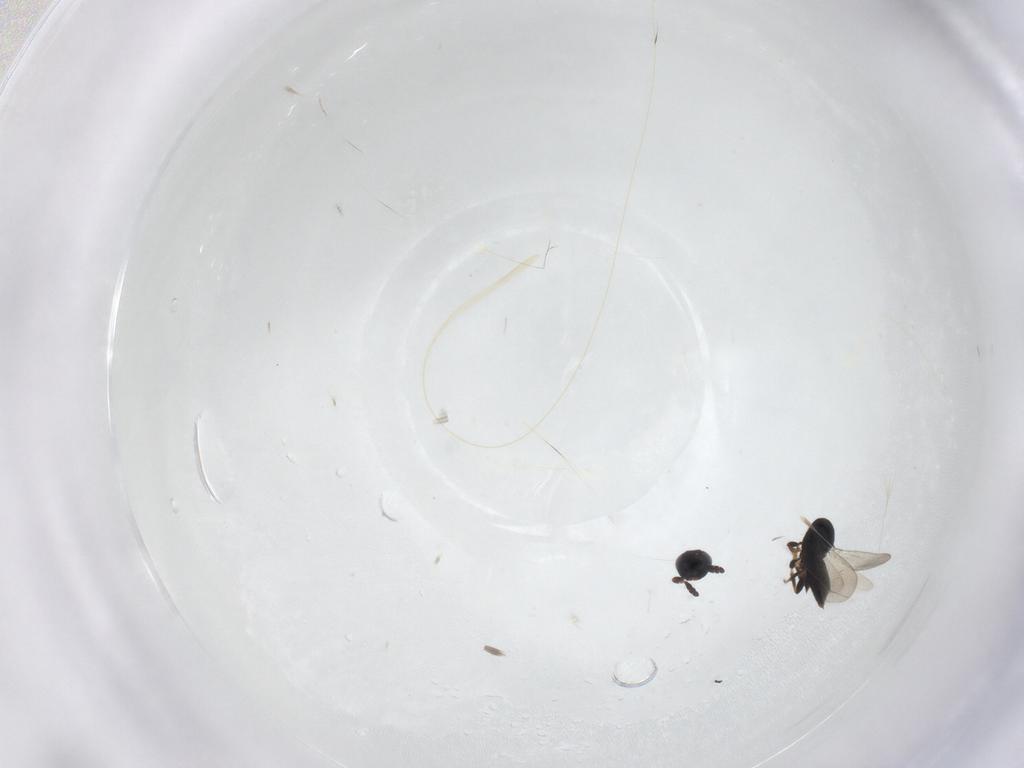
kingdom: Animalia
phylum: Arthropoda
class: Insecta
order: Hymenoptera
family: Platygastridae
